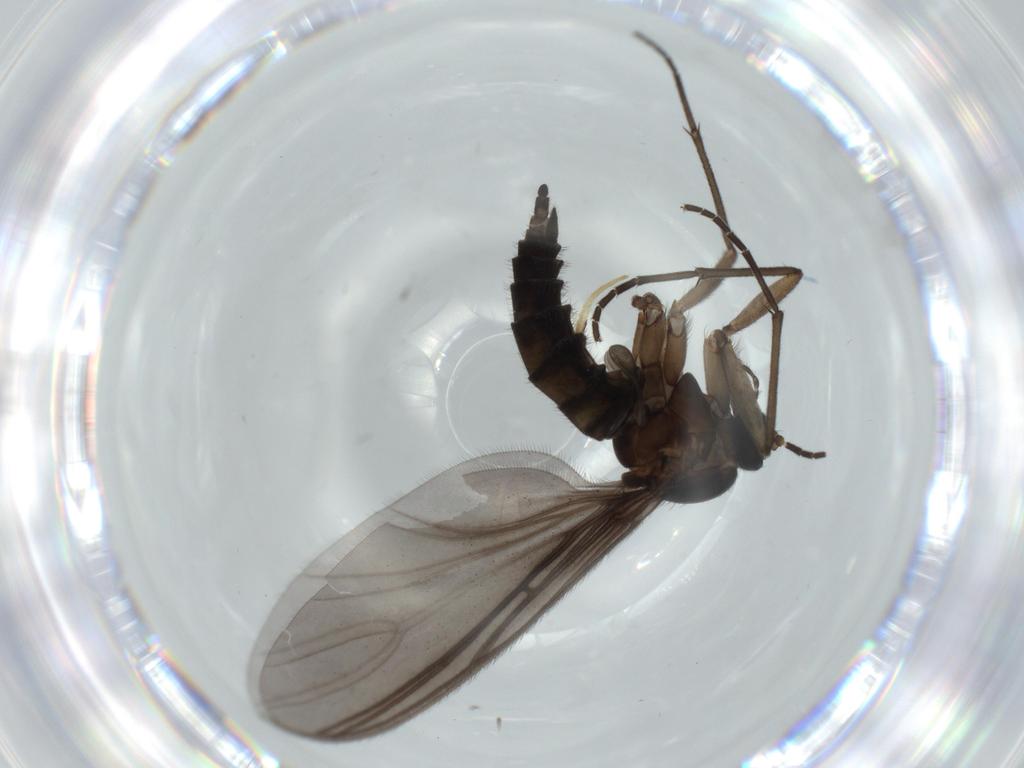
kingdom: Animalia
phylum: Arthropoda
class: Insecta
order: Diptera
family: Sciaridae
